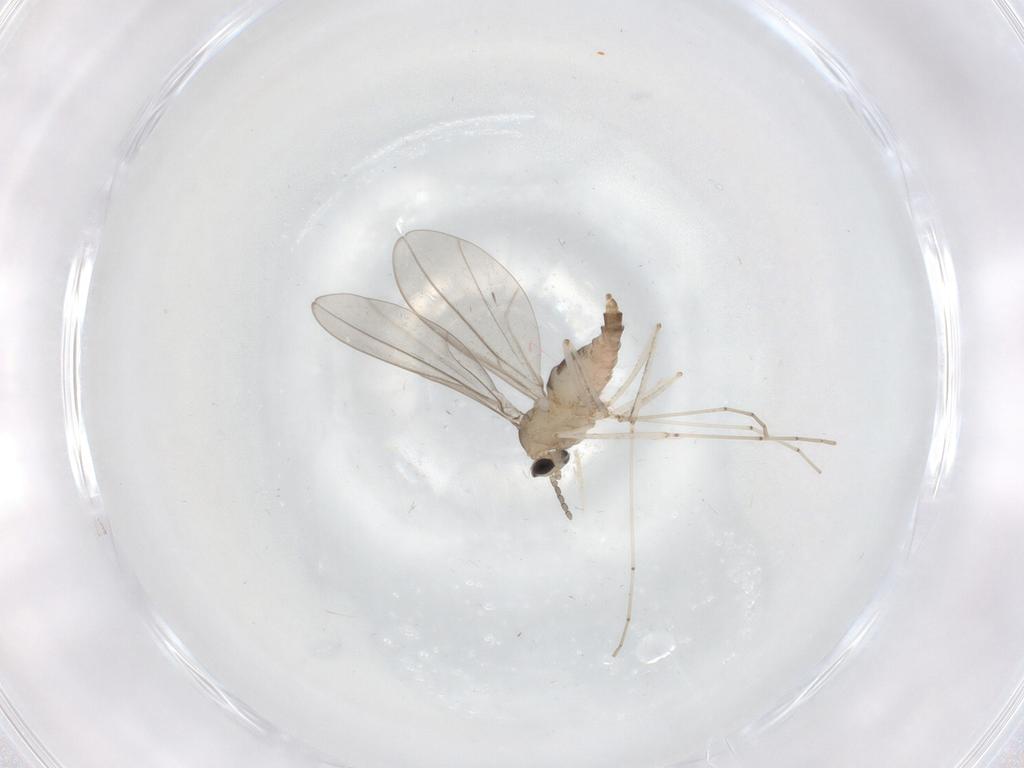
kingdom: Animalia
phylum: Arthropoda
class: Insecta
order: Diptera
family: Cecidomyiidae
